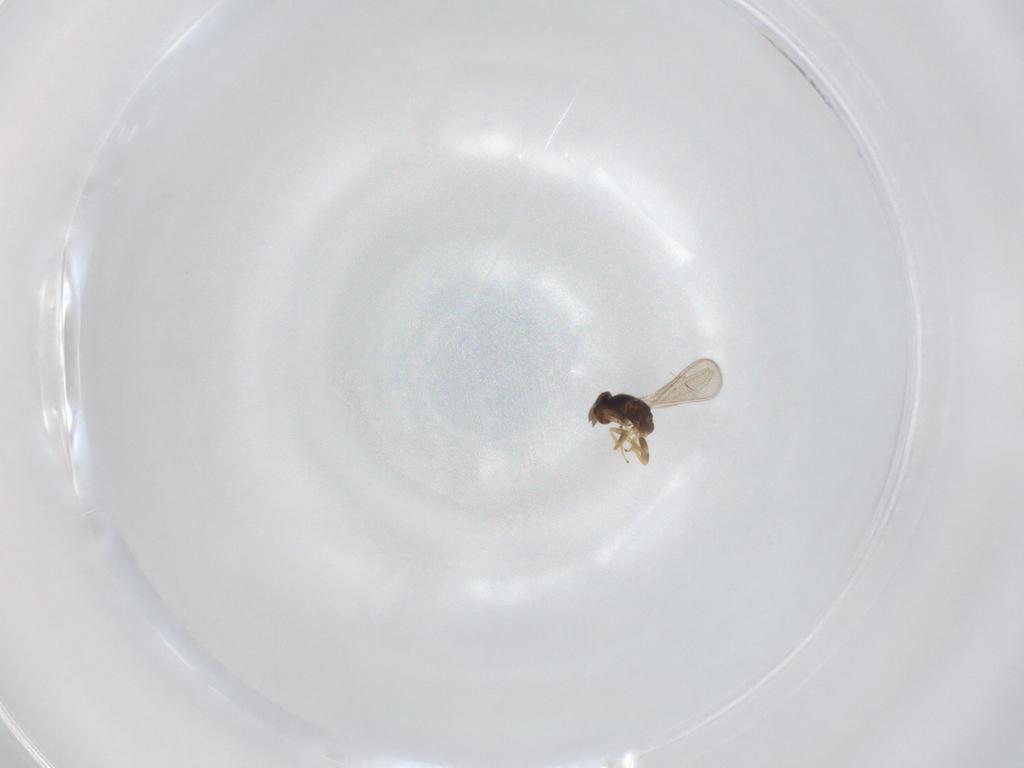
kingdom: Animalia
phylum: Arthropoda
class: Insecta
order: Hymenoptera
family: Eulophidae
